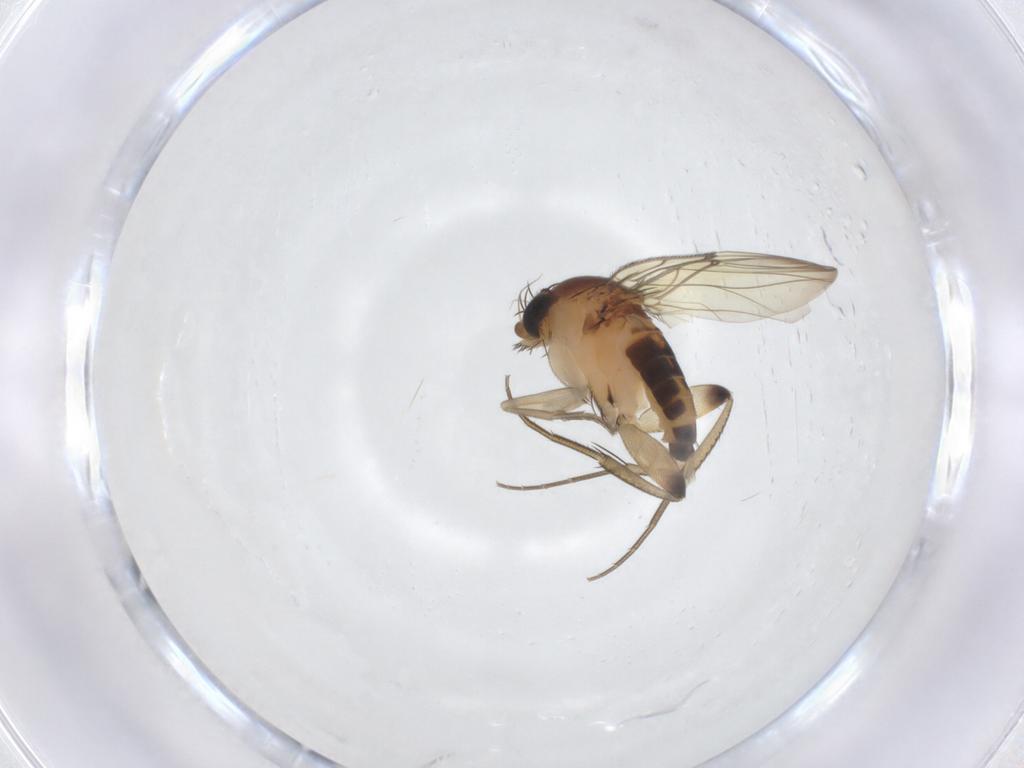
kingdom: Animalia
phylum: Arthropoda
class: Insecta
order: Diptera
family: Phoridae
